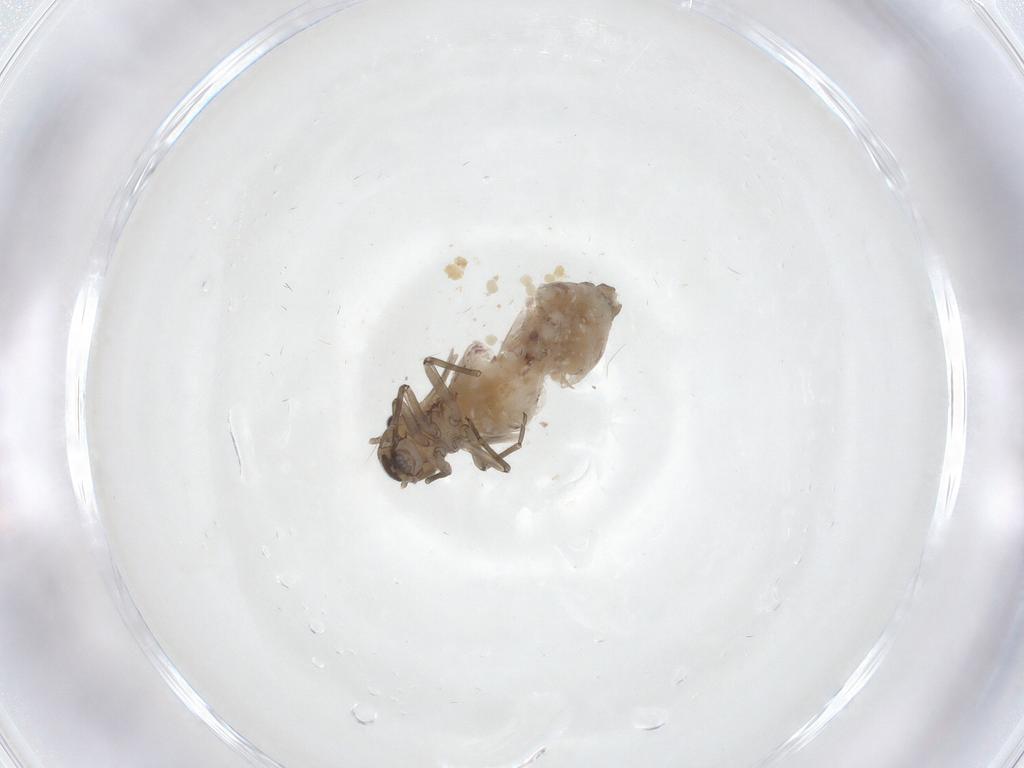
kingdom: Animalia
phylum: Arthropoda
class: Insecta
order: Psocodea
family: Peripsocidae
